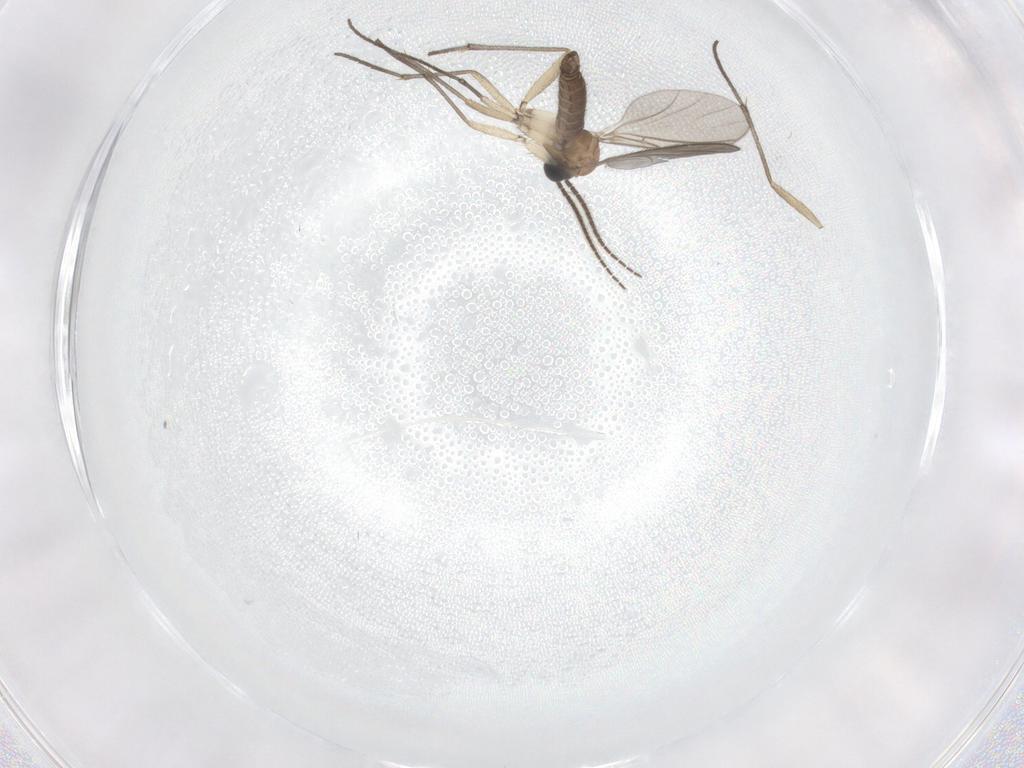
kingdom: Animalia
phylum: Arthropoda
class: Insecta
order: Diptera
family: Sciaridae
